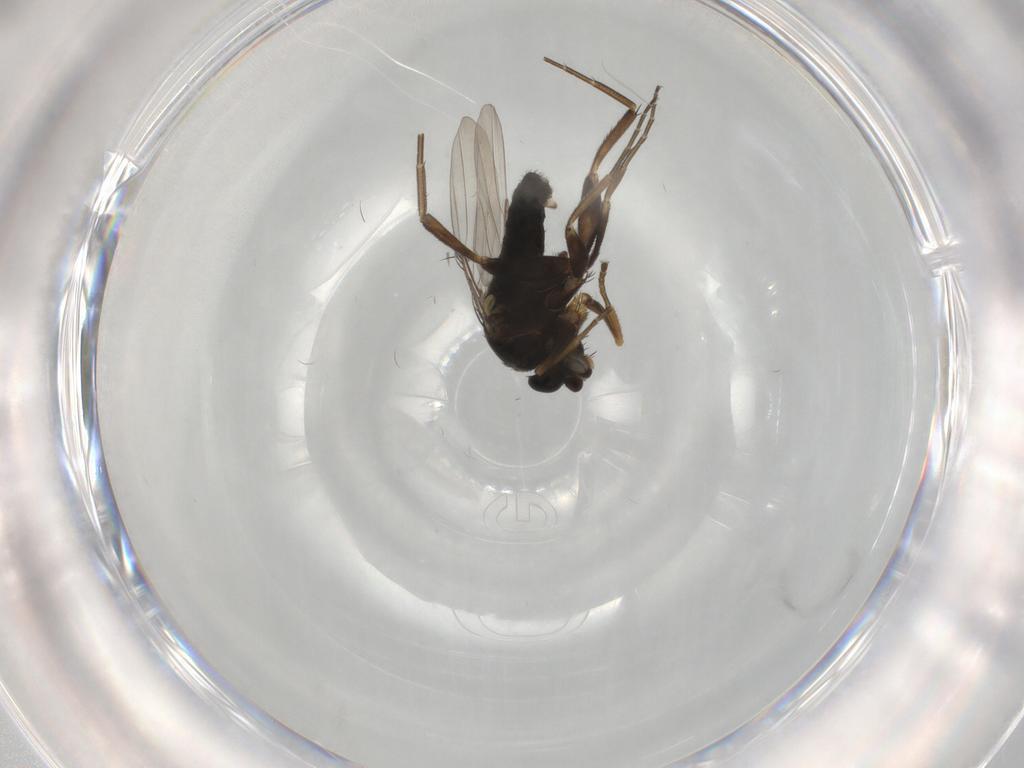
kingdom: Animalia
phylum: Arthropoda
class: Insecta
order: Diptera
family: Phoridae
